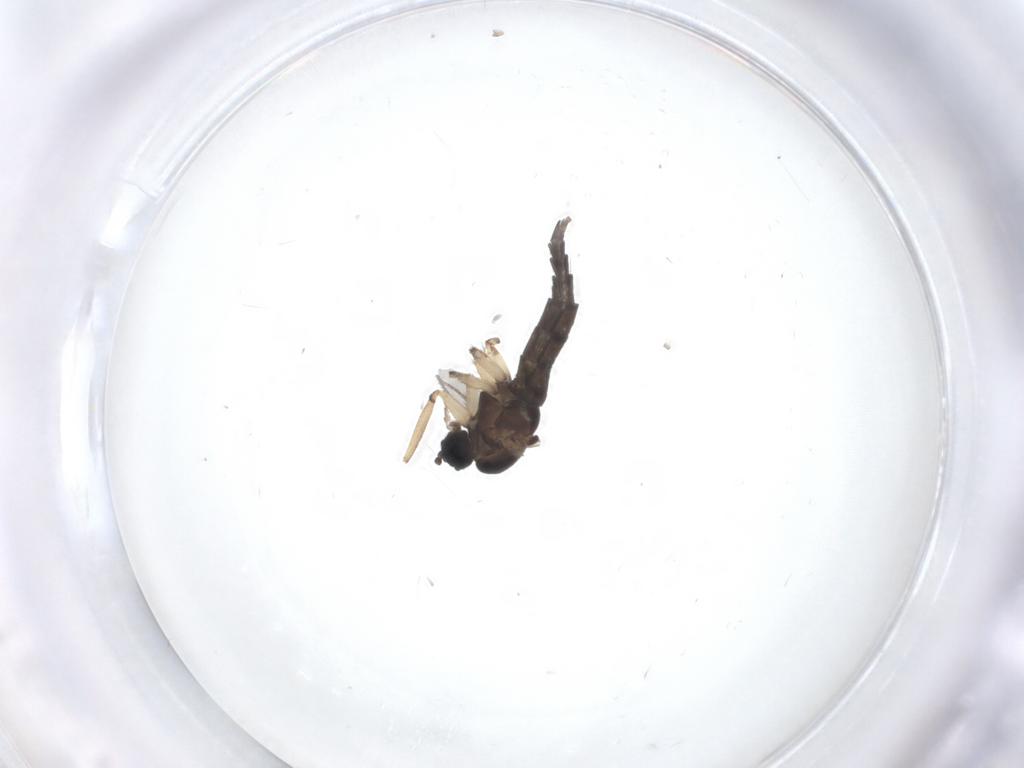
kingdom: Animalia
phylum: Arthropoda
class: Insecta
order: Diptera
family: Sciaridae
